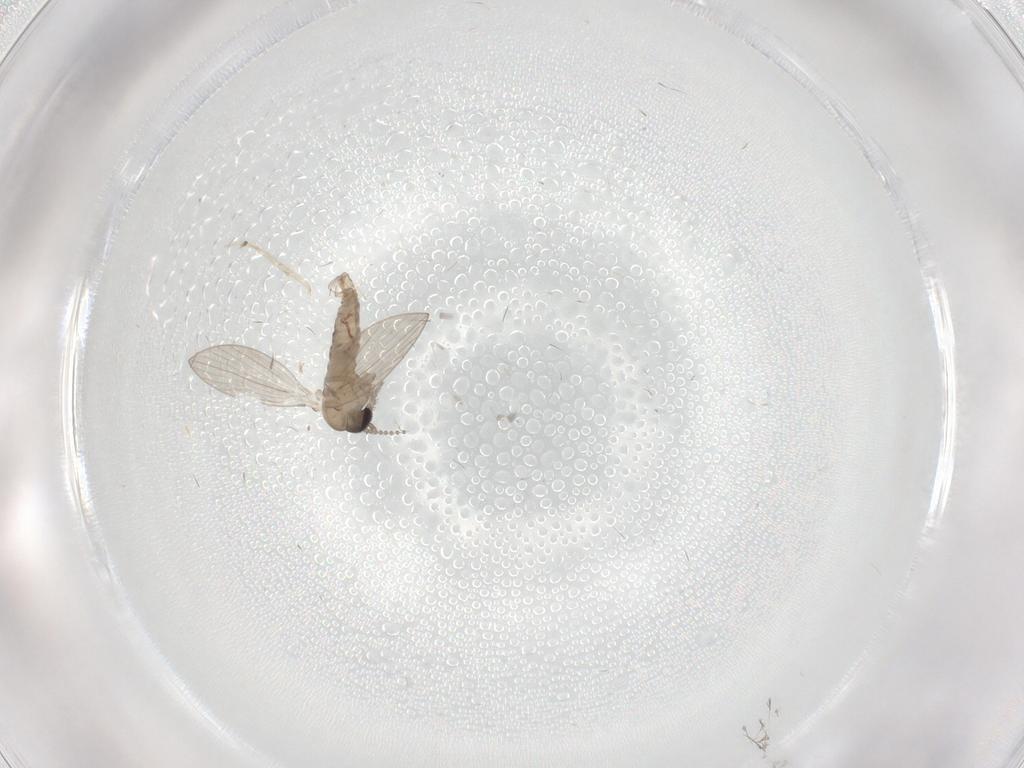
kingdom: Animalia
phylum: Arthropoda
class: Insecta
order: Diptera
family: Psychodidae
